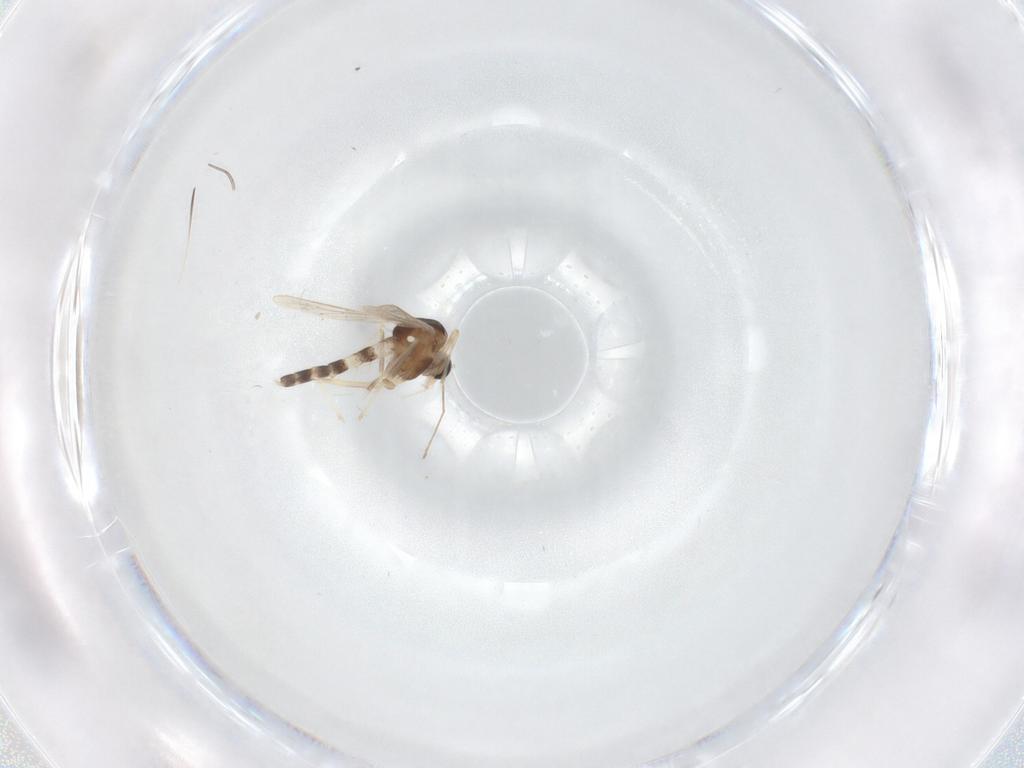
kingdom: Animalia
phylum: Arthropoda
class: Insecta
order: Diptera
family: Chironomidae
